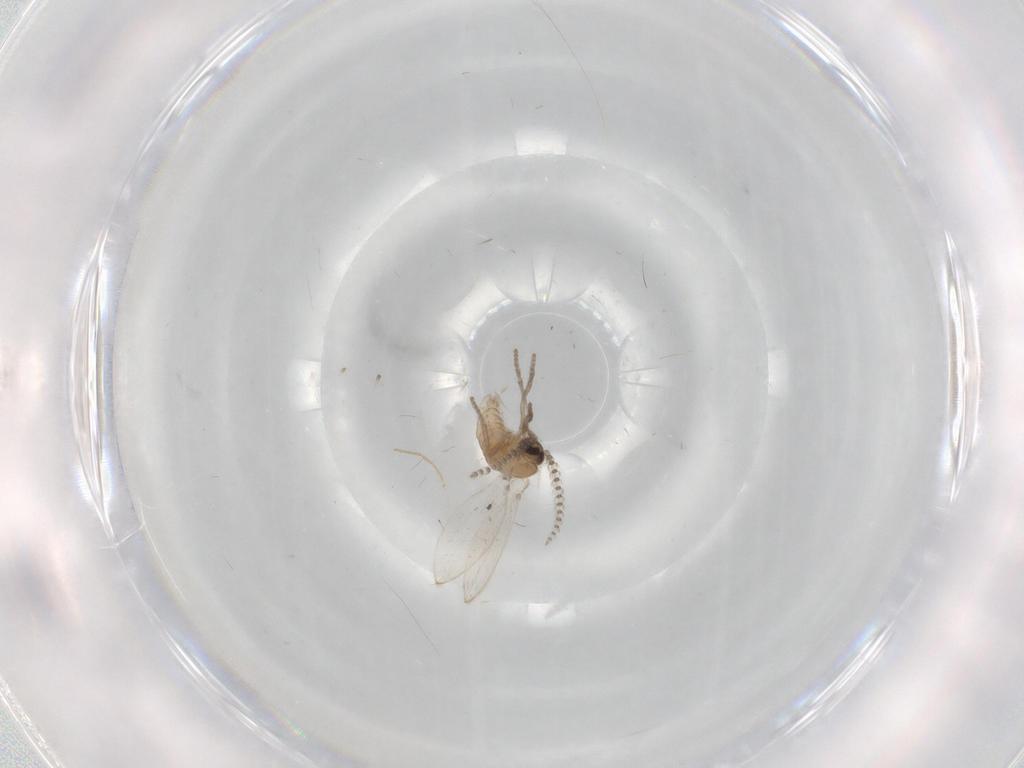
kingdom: Animalia
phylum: Arthropoda
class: Insecta
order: Diptera
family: Psychodidae
